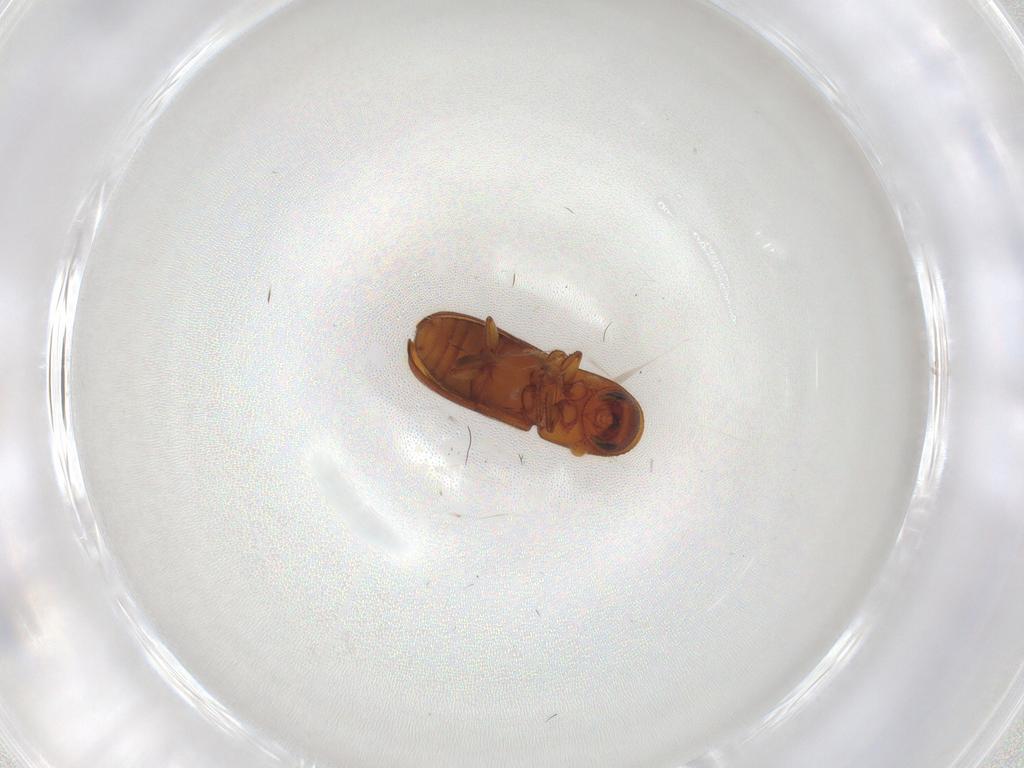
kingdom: Animalia
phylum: Arthropoda
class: Insecta
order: Coleoptera
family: Curculionidae
